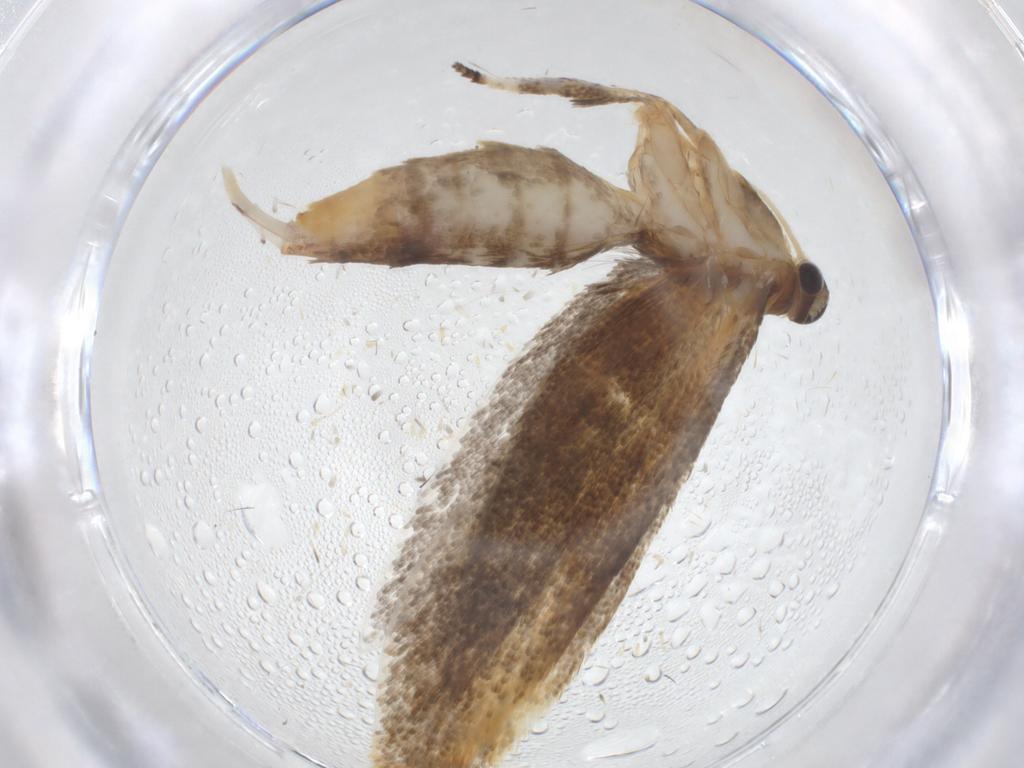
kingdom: Animalia
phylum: Arthropoda
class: Insecta
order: Lepidoptera
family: Oecophoridae
